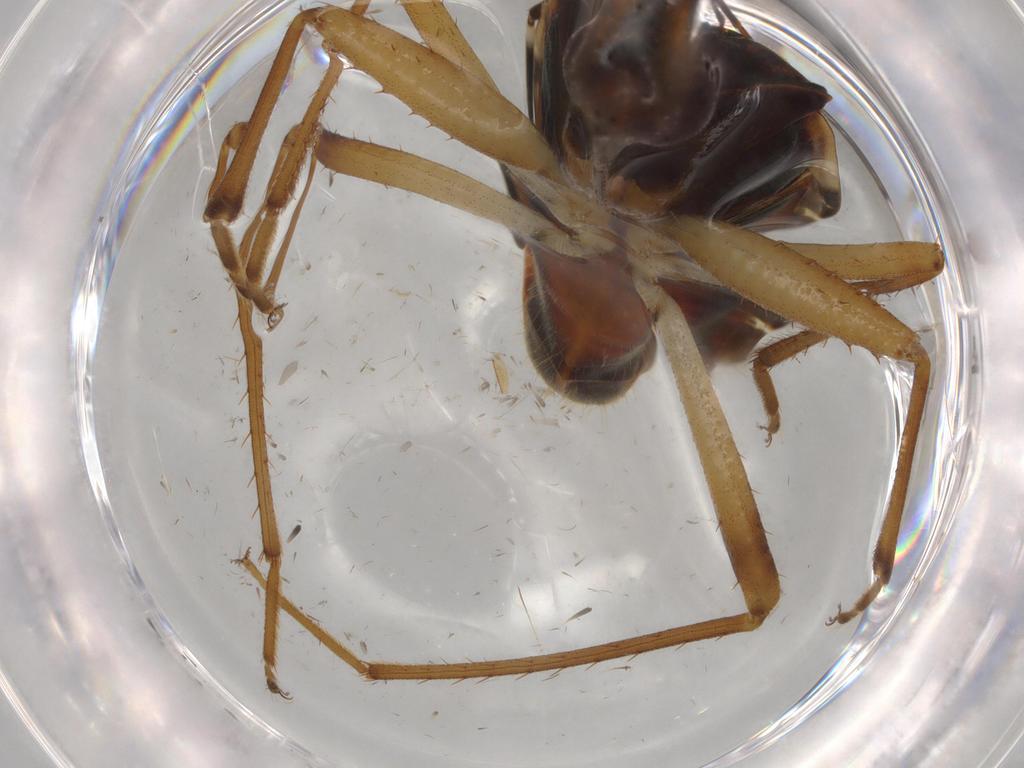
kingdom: Animalia
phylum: Arthropoda
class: Insecta
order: Hemiptera
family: Rhyparochromidae
